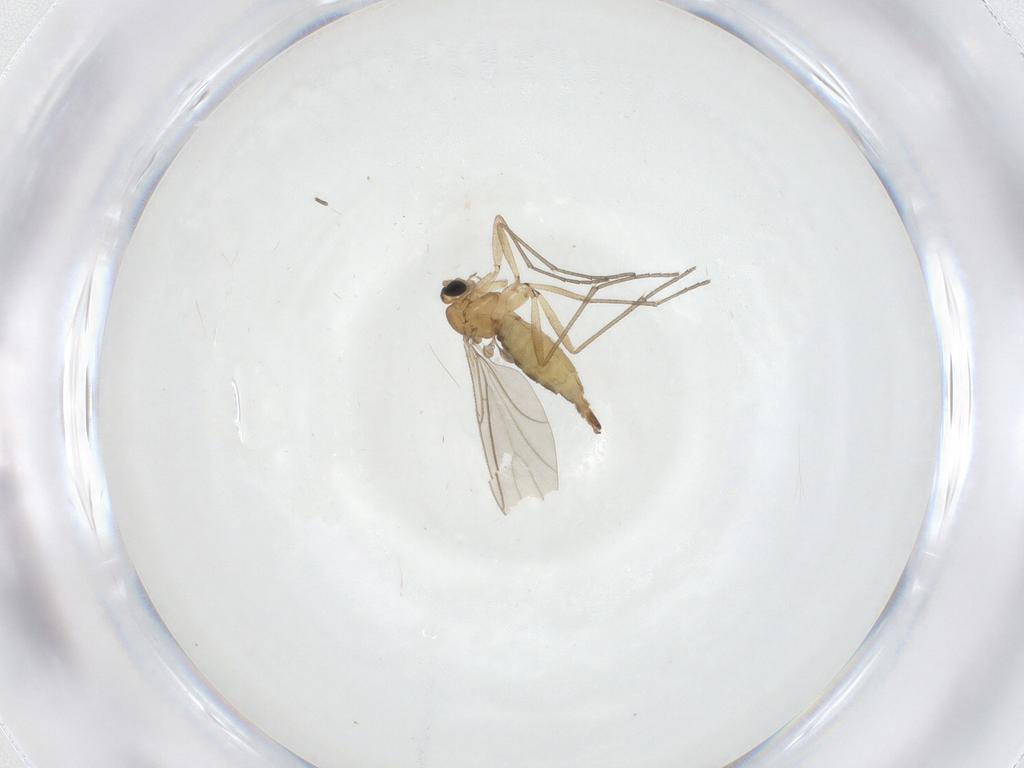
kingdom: Animalia
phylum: Arthropoda
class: Insecta
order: Diptera
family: Sciaridae
